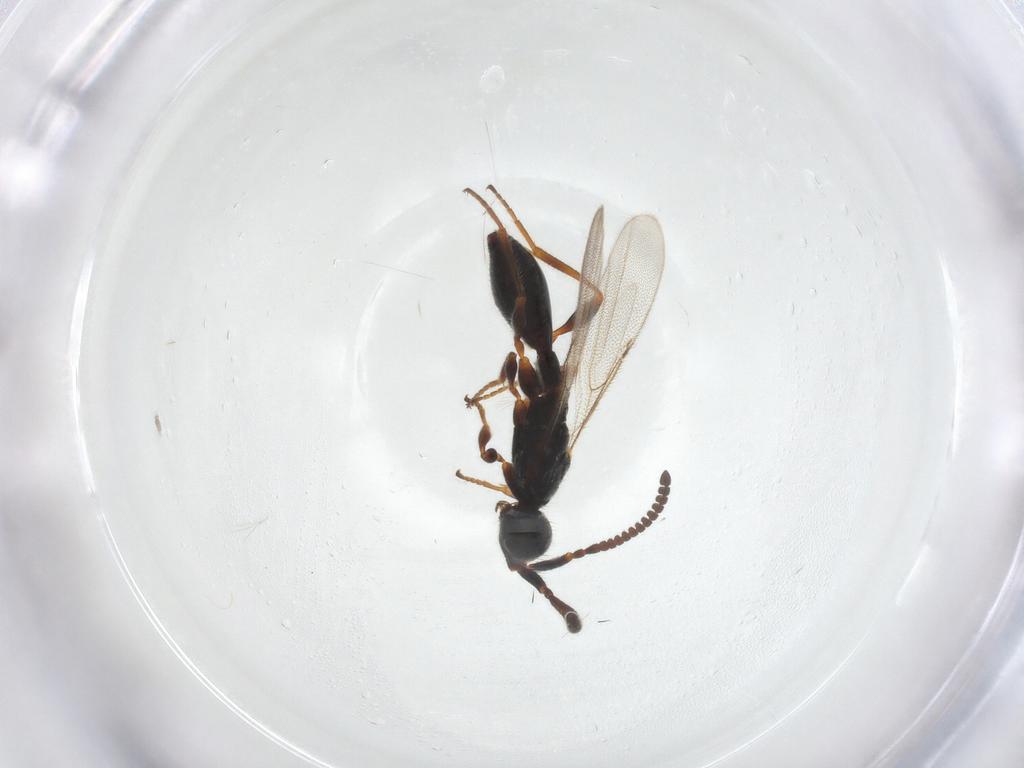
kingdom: Animalia
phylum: Arthropoda
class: Insecta
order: Hymenoptera
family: Diapriidae
